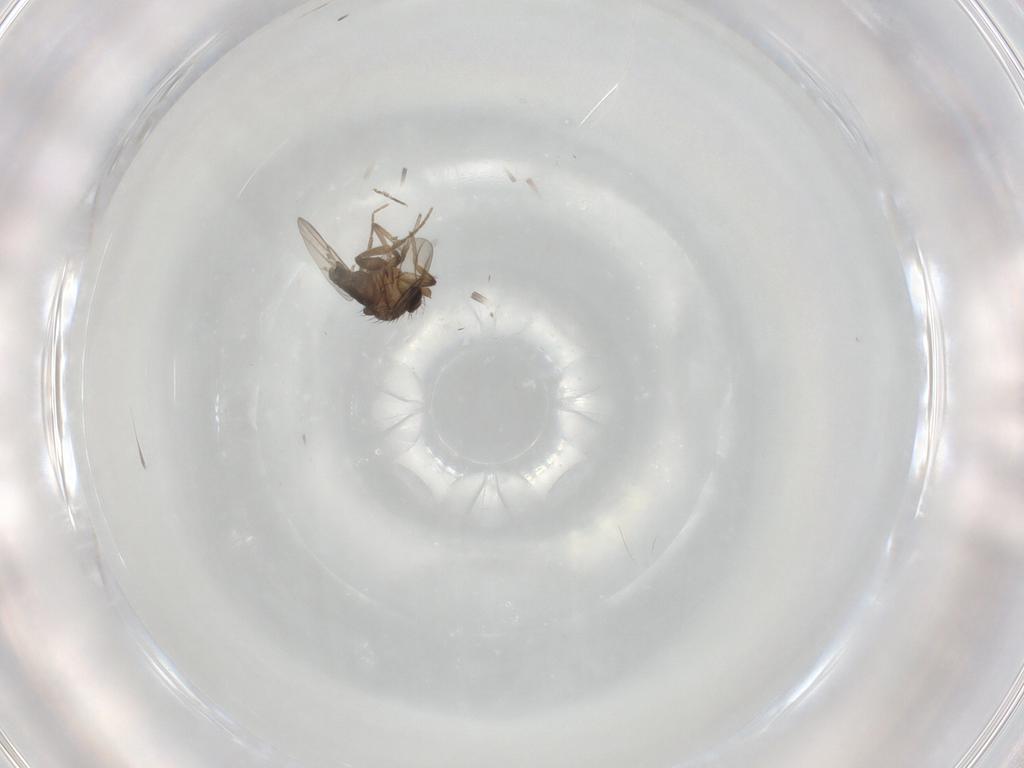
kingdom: Animalia
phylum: Arthropoda
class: Insecta
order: Diptera
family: Phoridae
